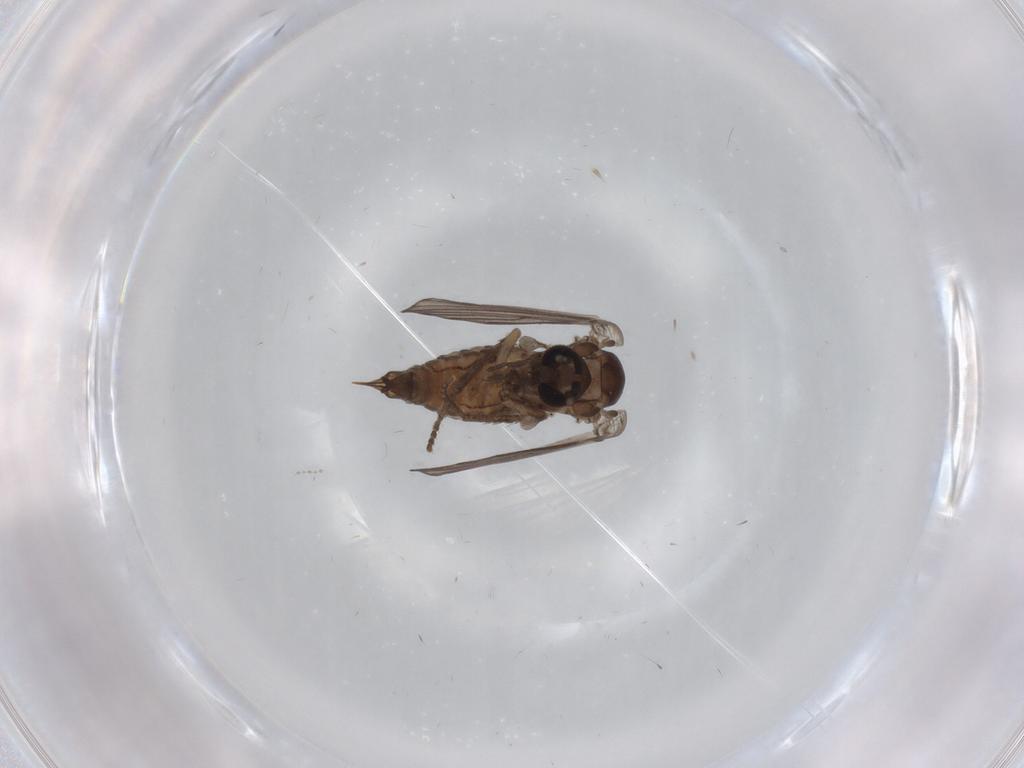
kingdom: Animalia
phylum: Arthropoda
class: Insecta
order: Diptera
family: Psychodidae
